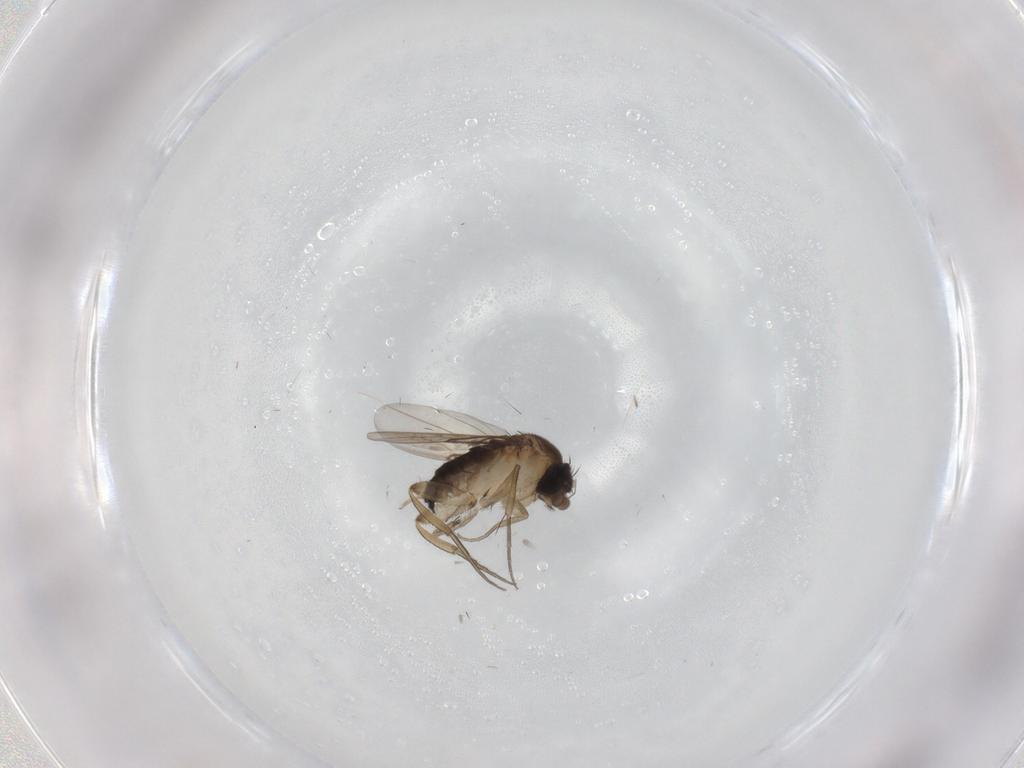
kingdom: Animalia
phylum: Arthropoda
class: Insecta
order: Diptera
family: Phoridae
